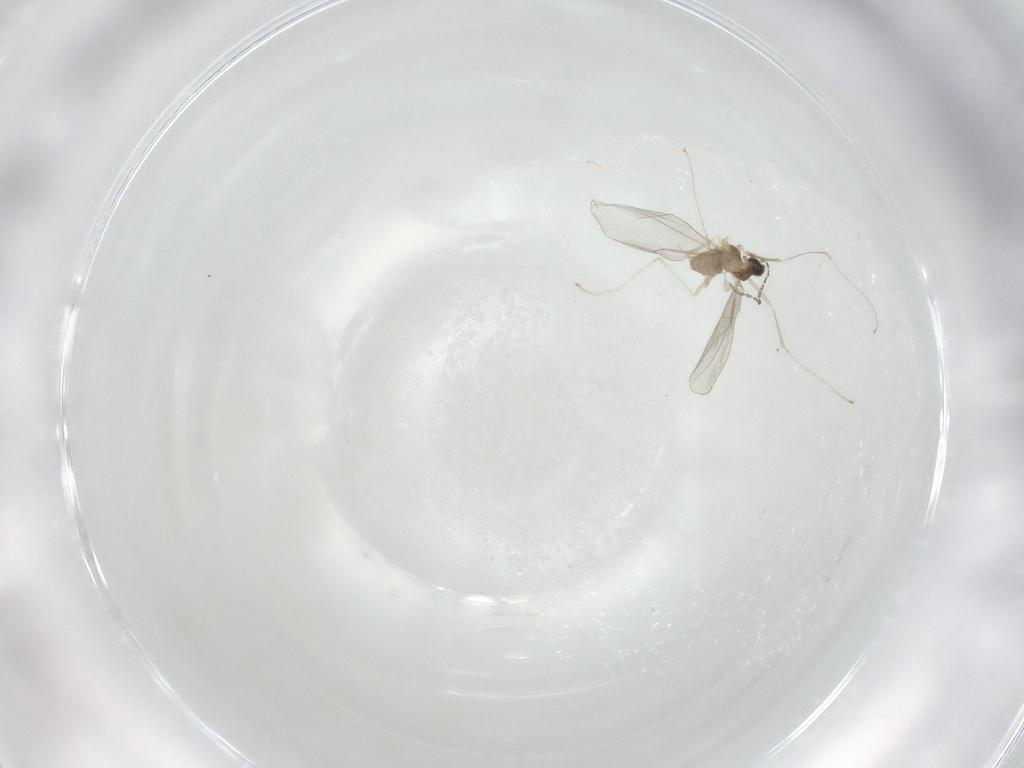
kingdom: Animalia
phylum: Arthropoda
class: Insecta
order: Diptera
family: Cecidomyiidae
